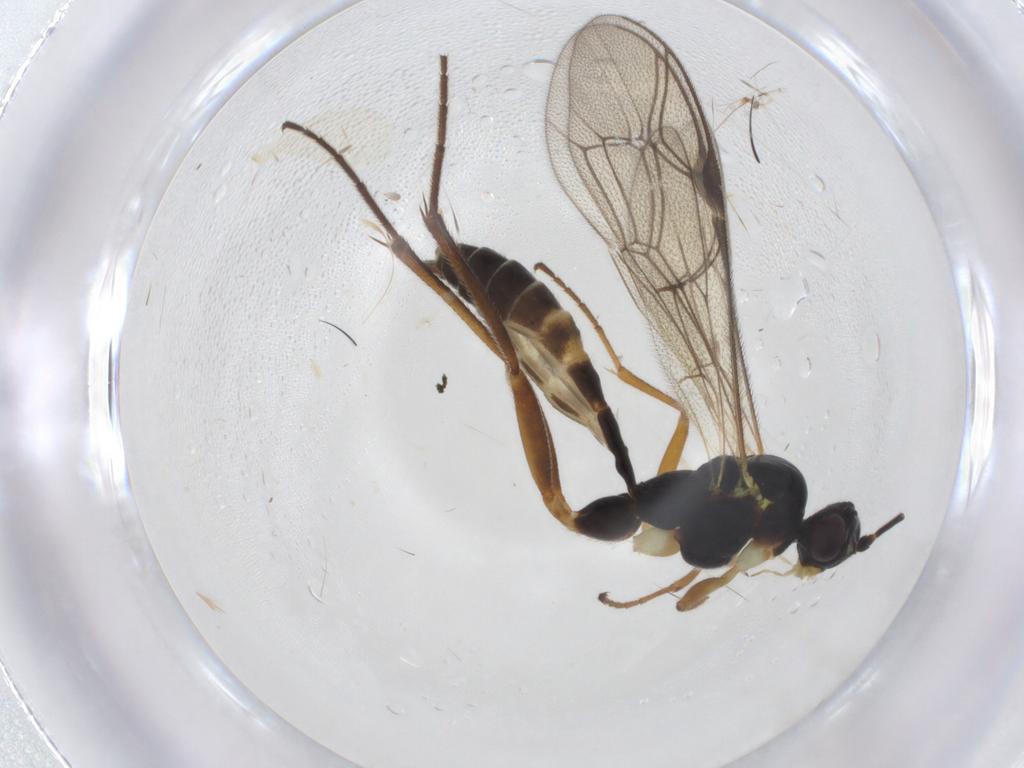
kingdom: Animalia
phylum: Arthropoda
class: Insecta
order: Hymenoptera
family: Ichneumonidae
